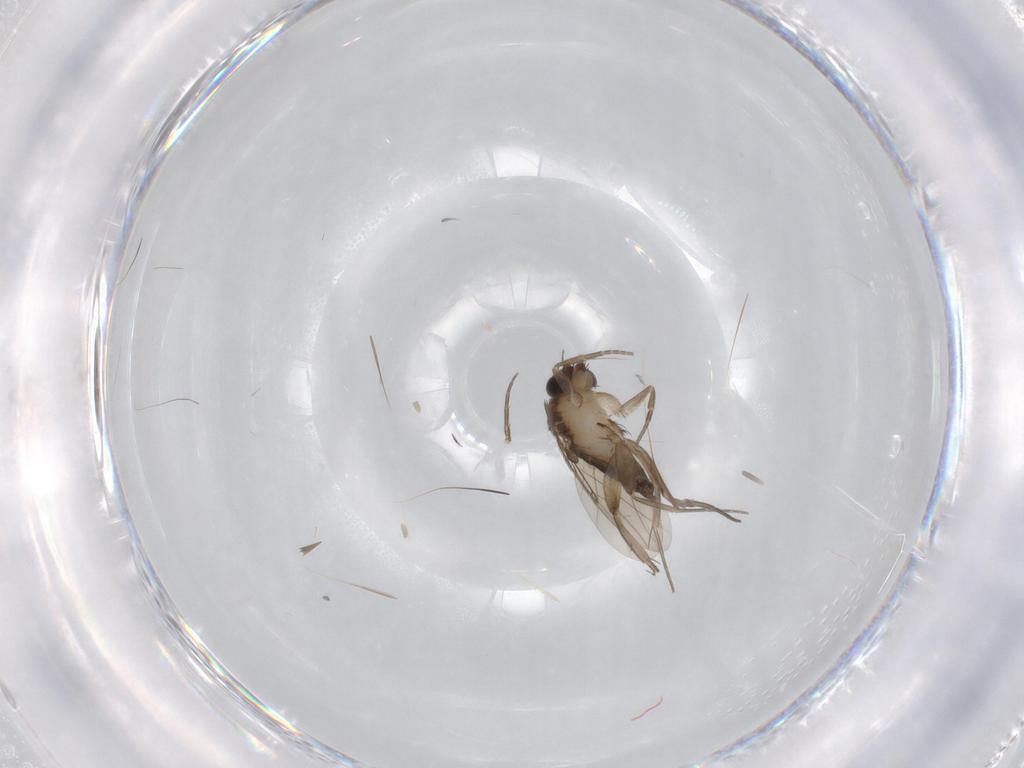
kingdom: Animalia
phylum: Arthropoda
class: Insecta
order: Diptera
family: Phoridae
